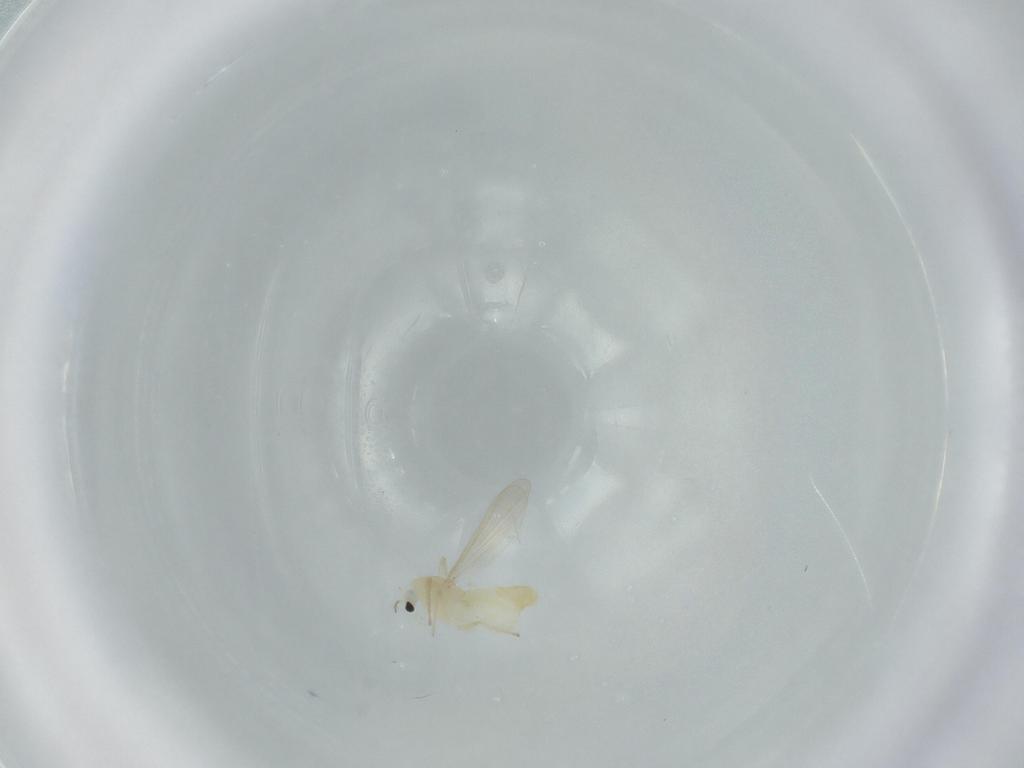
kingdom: Animalia
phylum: Arthropoda
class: Insecta
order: Diptera
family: Chironomidae
